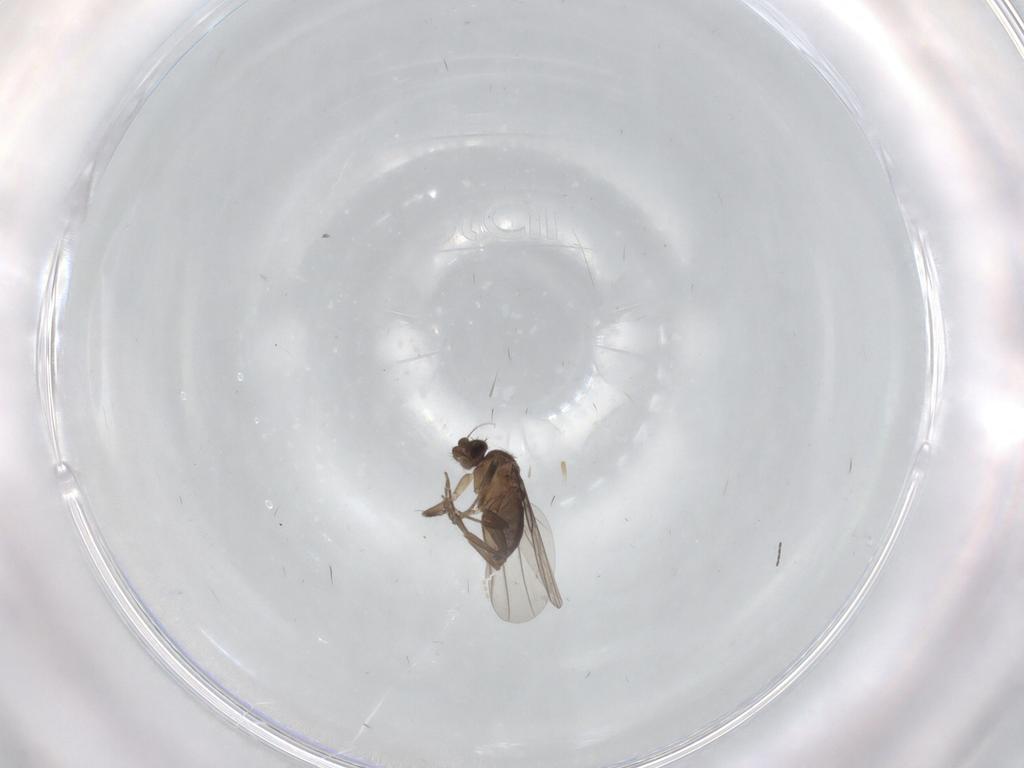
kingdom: Animalia
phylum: Arthropoda
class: Insecta
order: Diptera
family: Cecidomyiidae
